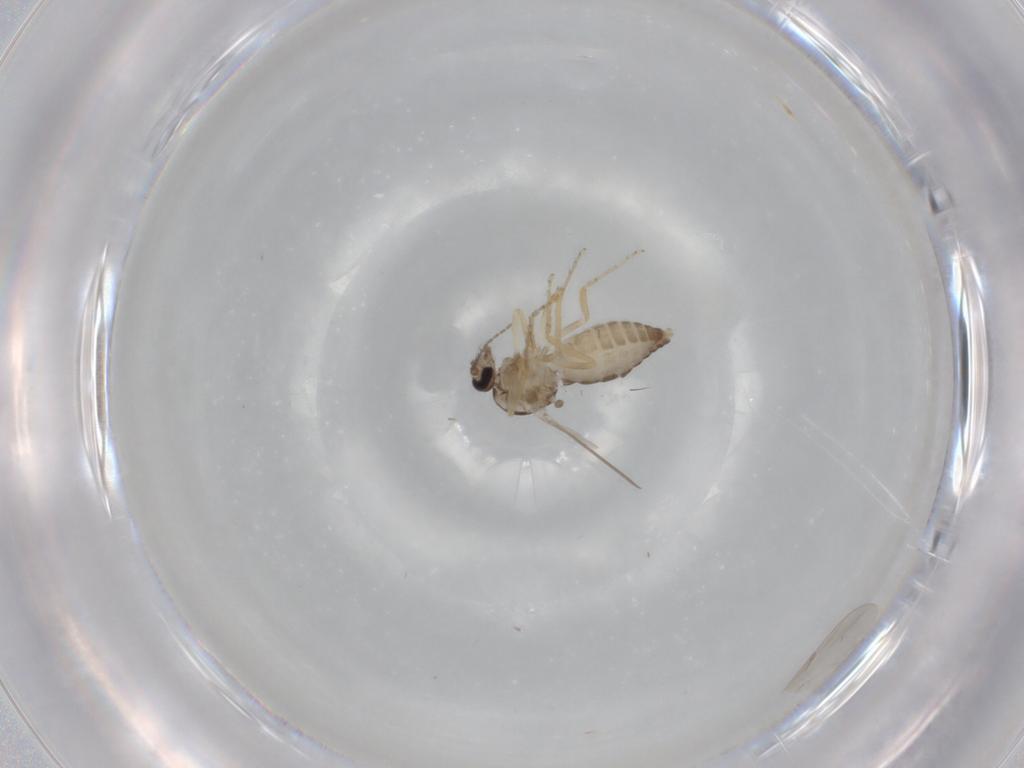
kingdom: Animalia
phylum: Arthropoda
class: Insecta
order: Diptera
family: Ceratopogonidae
